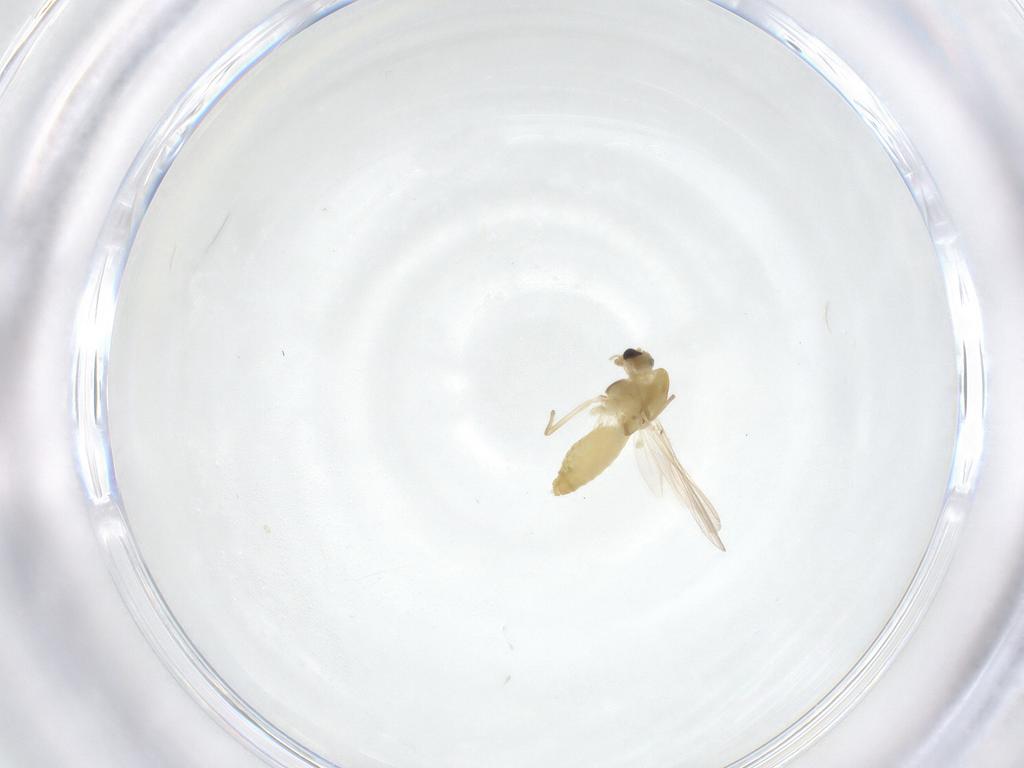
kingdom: Animalia
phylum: Arthropoda
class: Insecta
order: Diptera
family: Chironomidae
